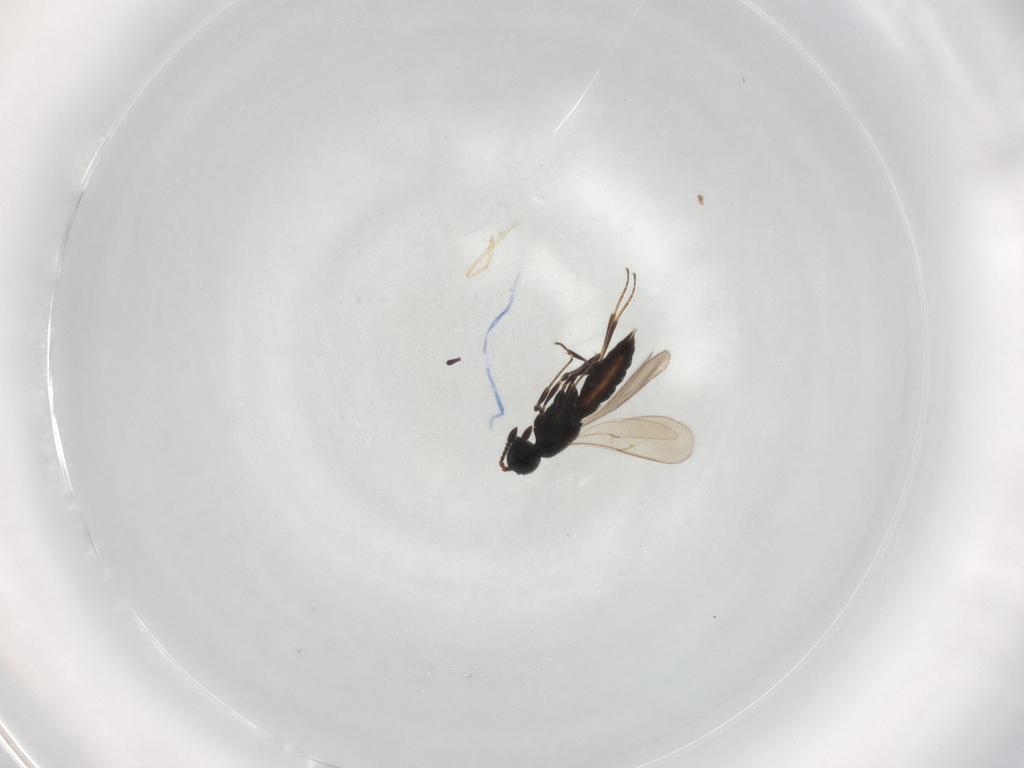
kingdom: Animalia
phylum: Arthropoda
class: Insecta
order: Hymenoptera
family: Scelionidae
